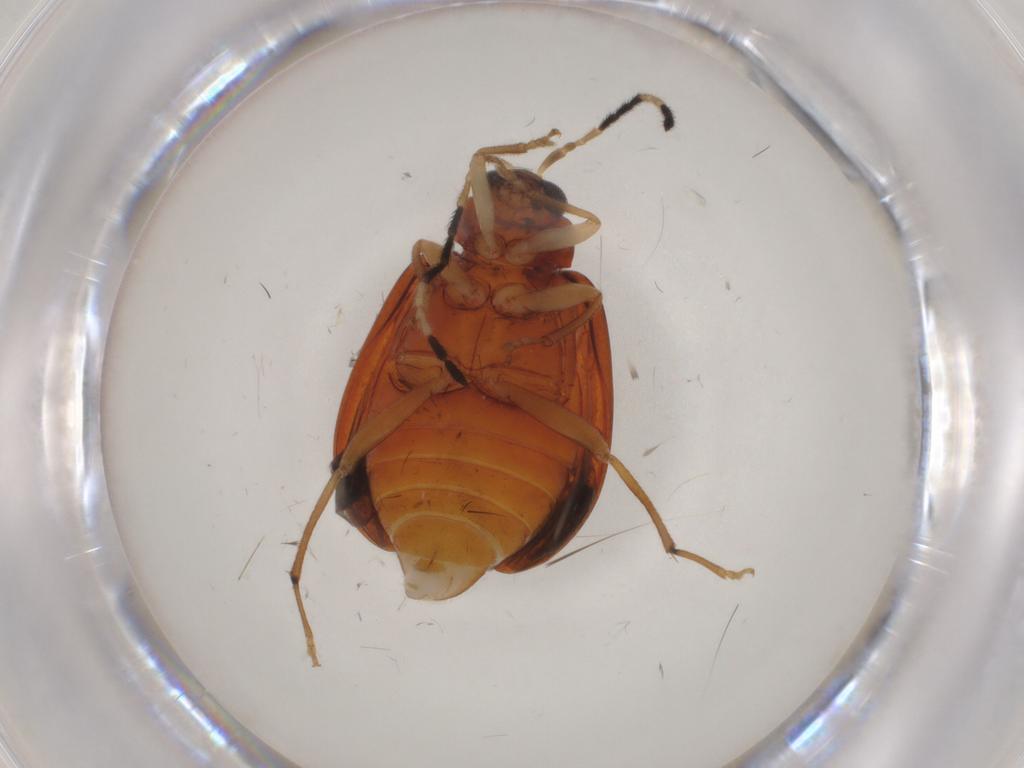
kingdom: Animalia
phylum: Arthropoda
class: Insecta
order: Coleoptera
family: Chrysomelidae
